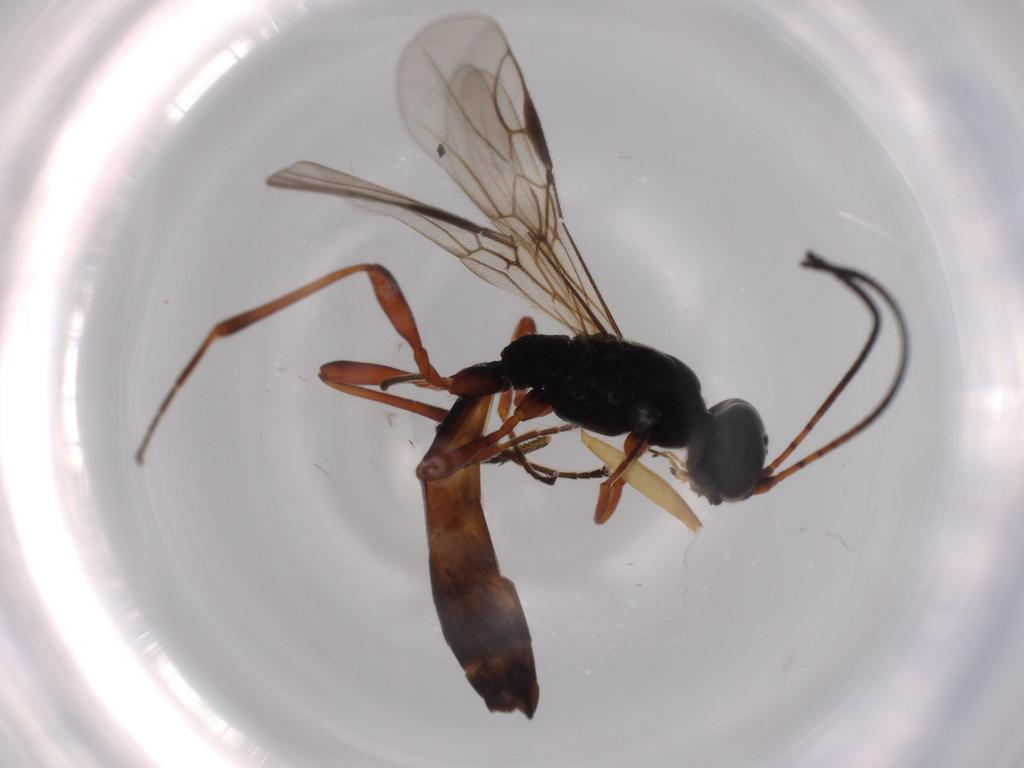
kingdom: Animalia
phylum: Arthropoda
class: Insecta
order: Hymenoptera
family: Braconidae
